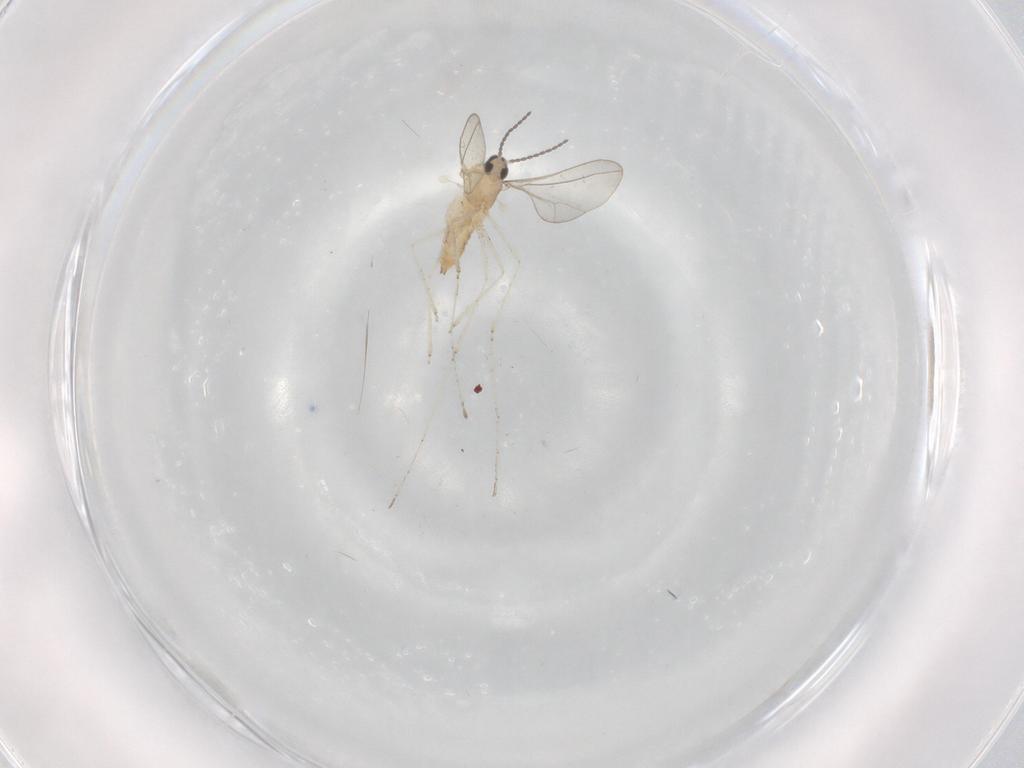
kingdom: Animalia
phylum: Arthropoda
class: Insecta
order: Diptera
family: Cecidomyiidae
